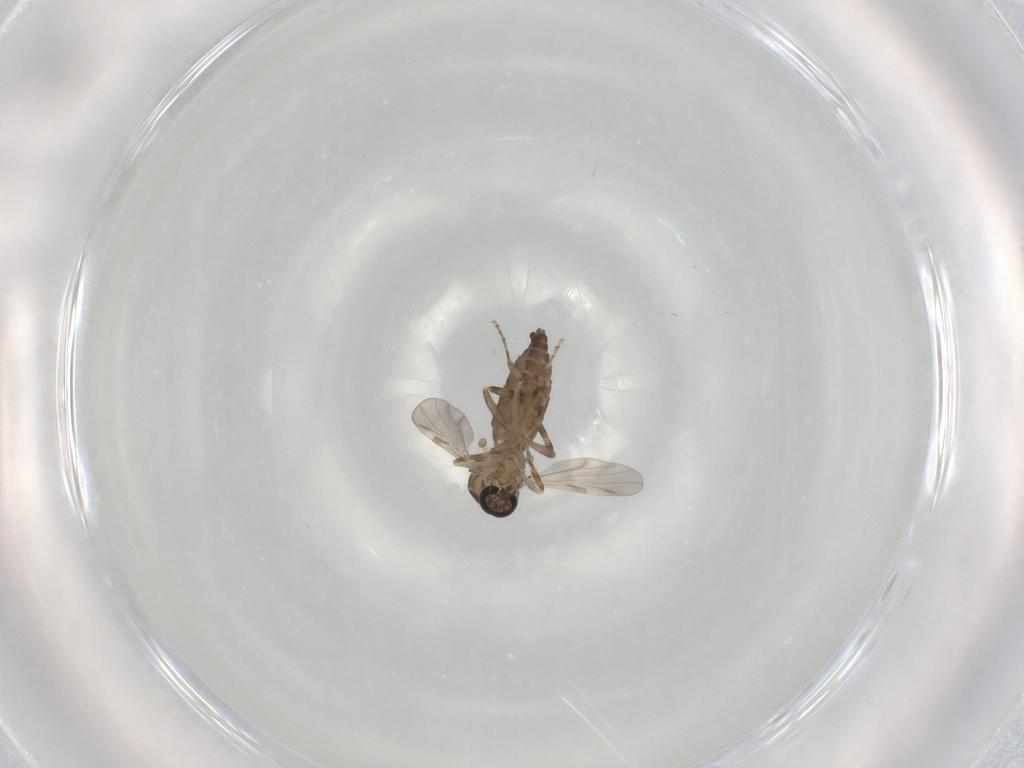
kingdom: Animalia
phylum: Arthropoda
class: Insecta
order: Diptera
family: Ceratopogonidae
